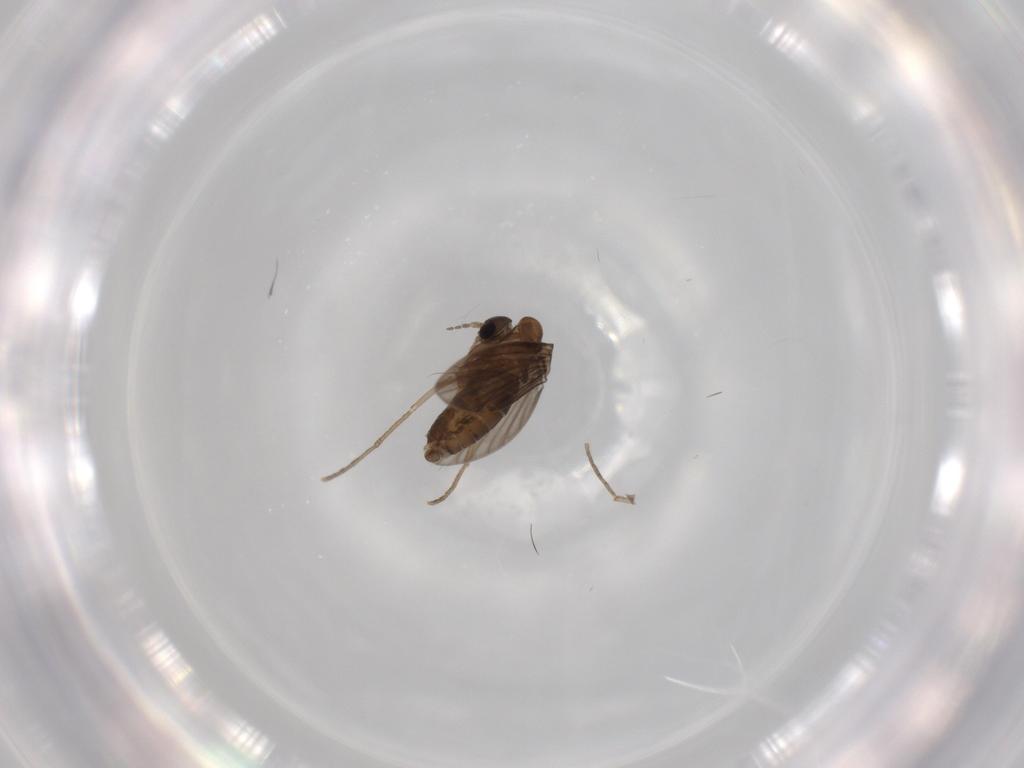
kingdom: Animalia
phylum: Arthropoda
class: Insecta
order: Diptera
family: Psychodidae
